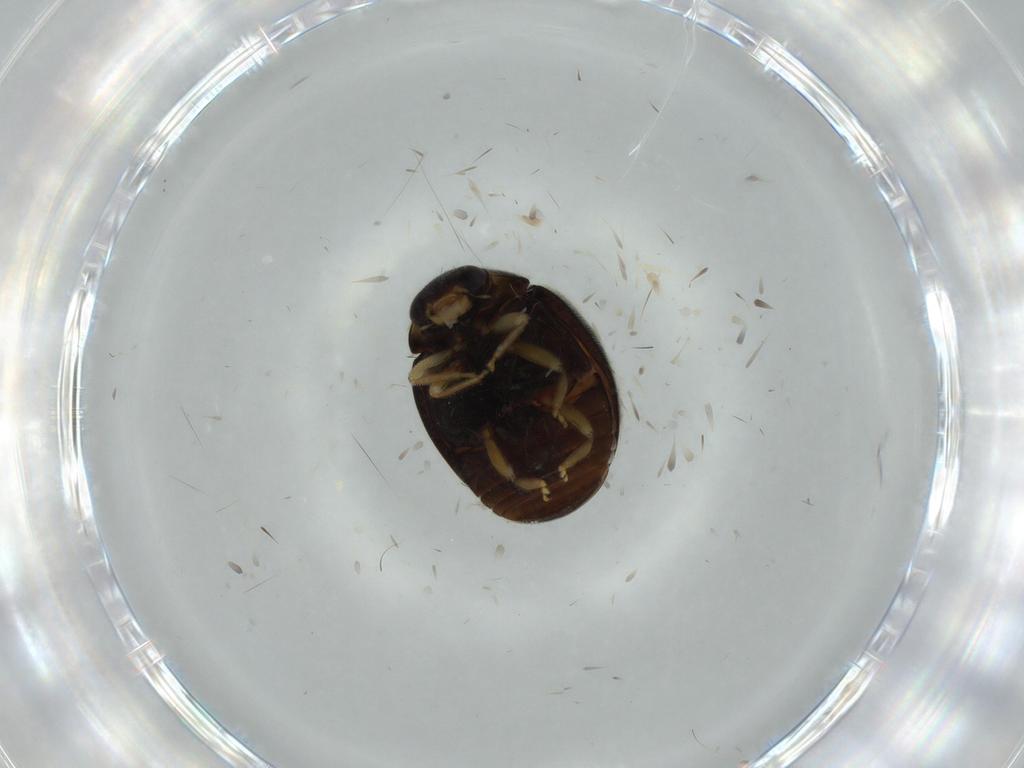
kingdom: Animalia
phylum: Arthropoda
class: Insecta
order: Coleoptera
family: Coccinellidae
